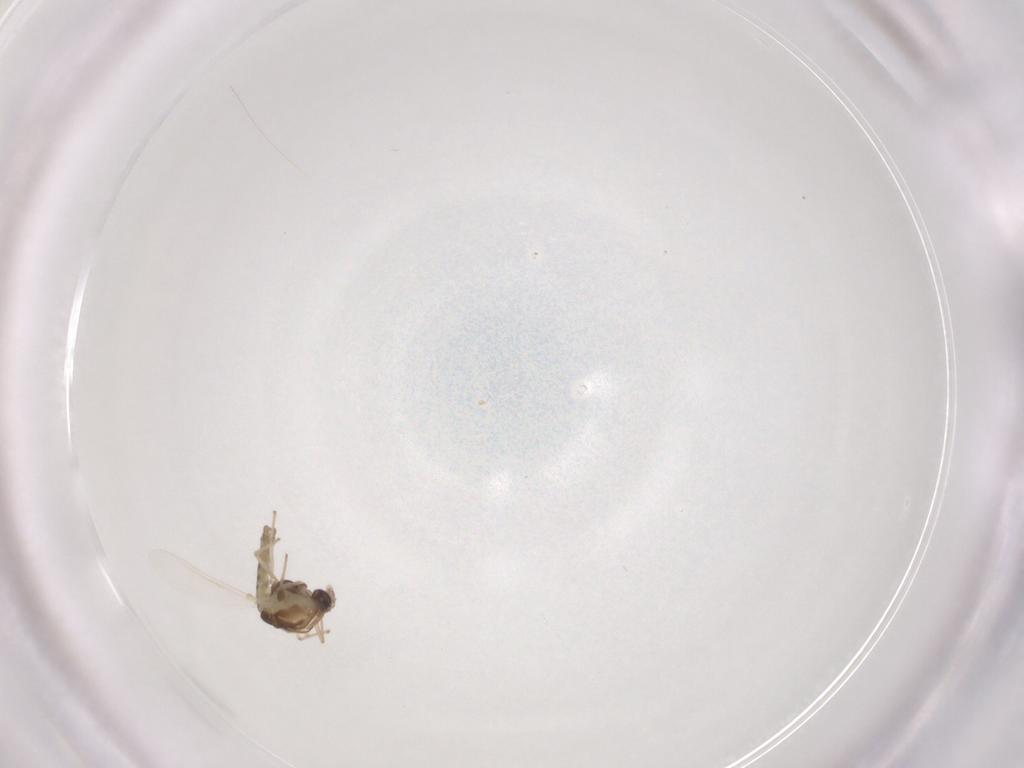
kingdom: Animalia
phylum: Arthropoda
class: Insecta
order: Diptera
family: Chironomidae
